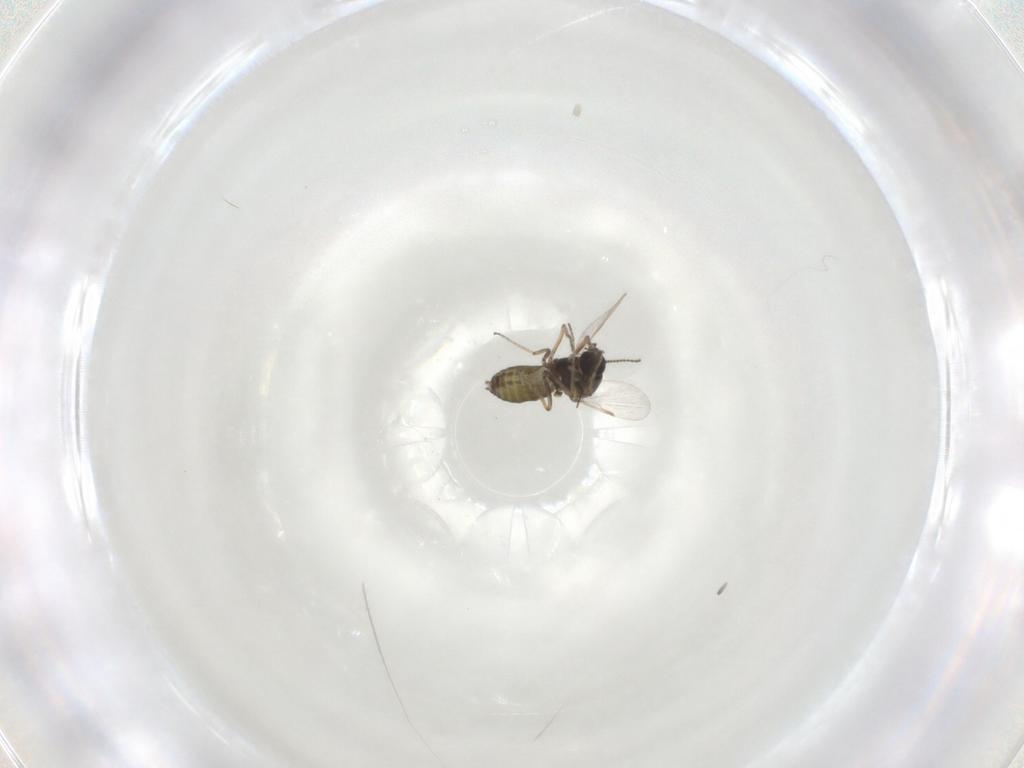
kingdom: Animalia
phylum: Arthropoda
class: Insecta
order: Diptera
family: Ceratopogonidae
